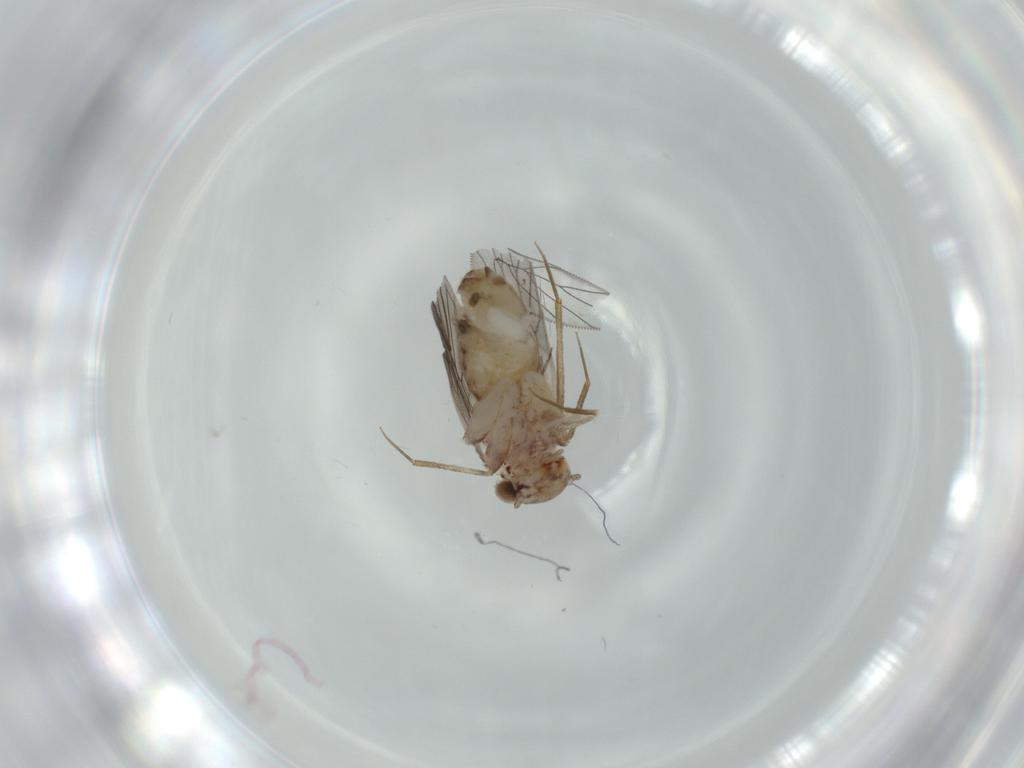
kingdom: Animalia
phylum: Arthropoda
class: Insecta
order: Psocodea
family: Lepidopsocidae
